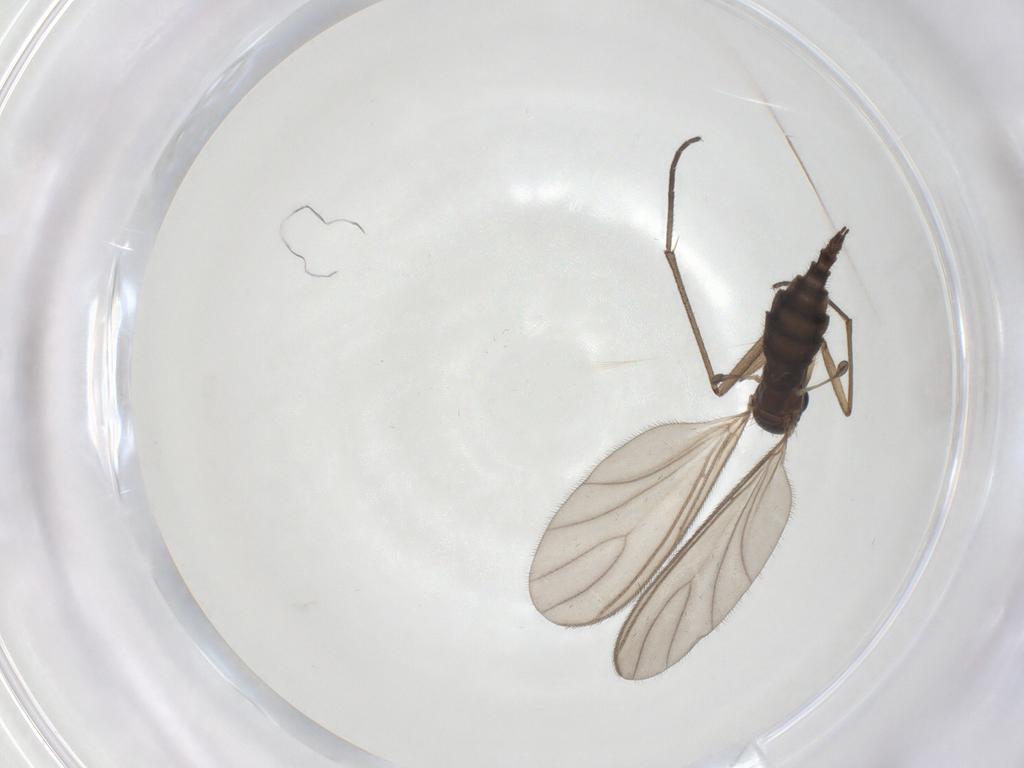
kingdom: Animalia
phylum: Arthropoda
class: Insecta
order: Diptera
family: Sciaridae
